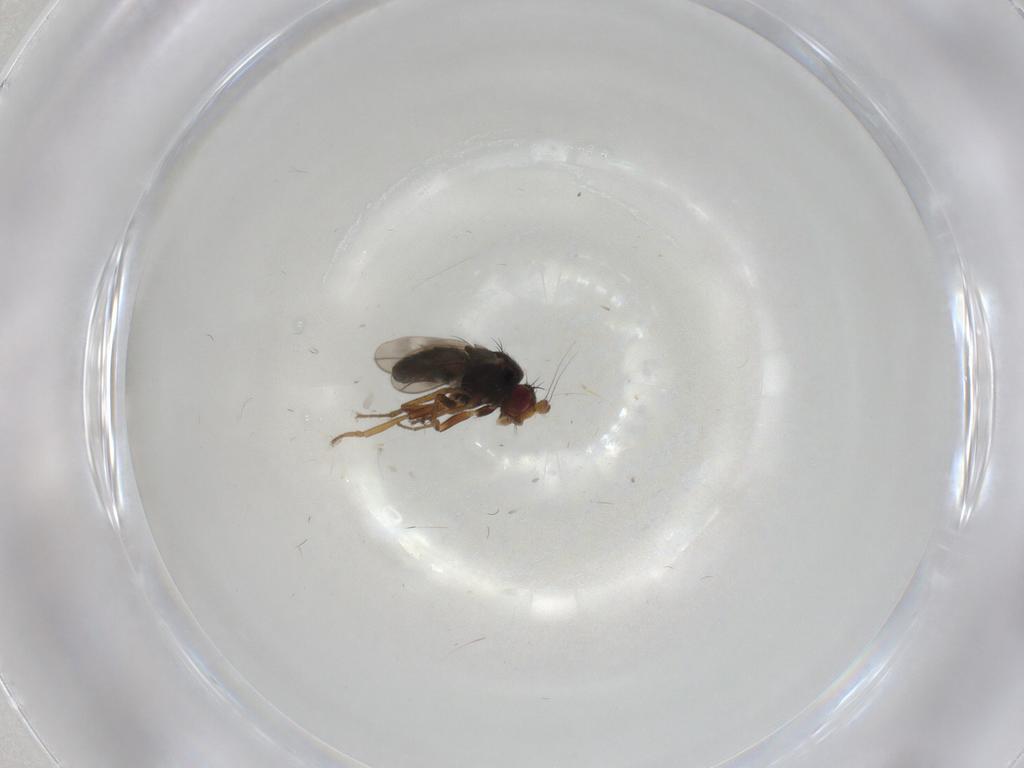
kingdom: Animalia
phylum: Arthropoda
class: Insecta
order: Diptera
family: Sphaeroceridae
